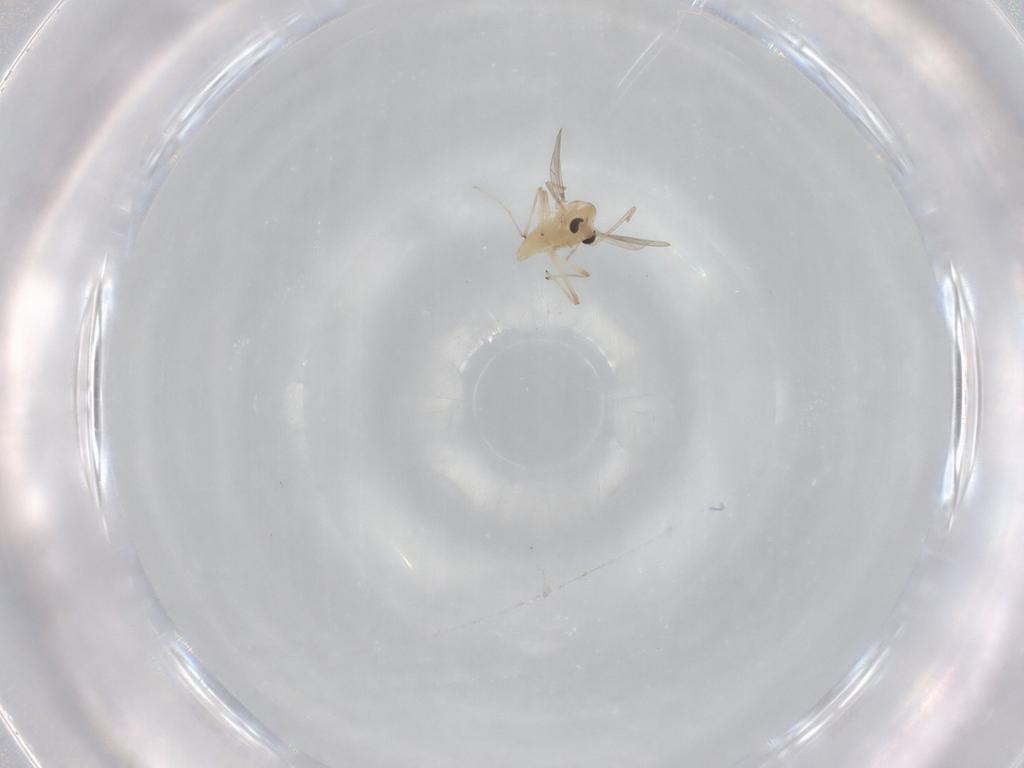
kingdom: Animalia
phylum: Arthropoda
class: Insecta
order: Diptera
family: Chironomidae
